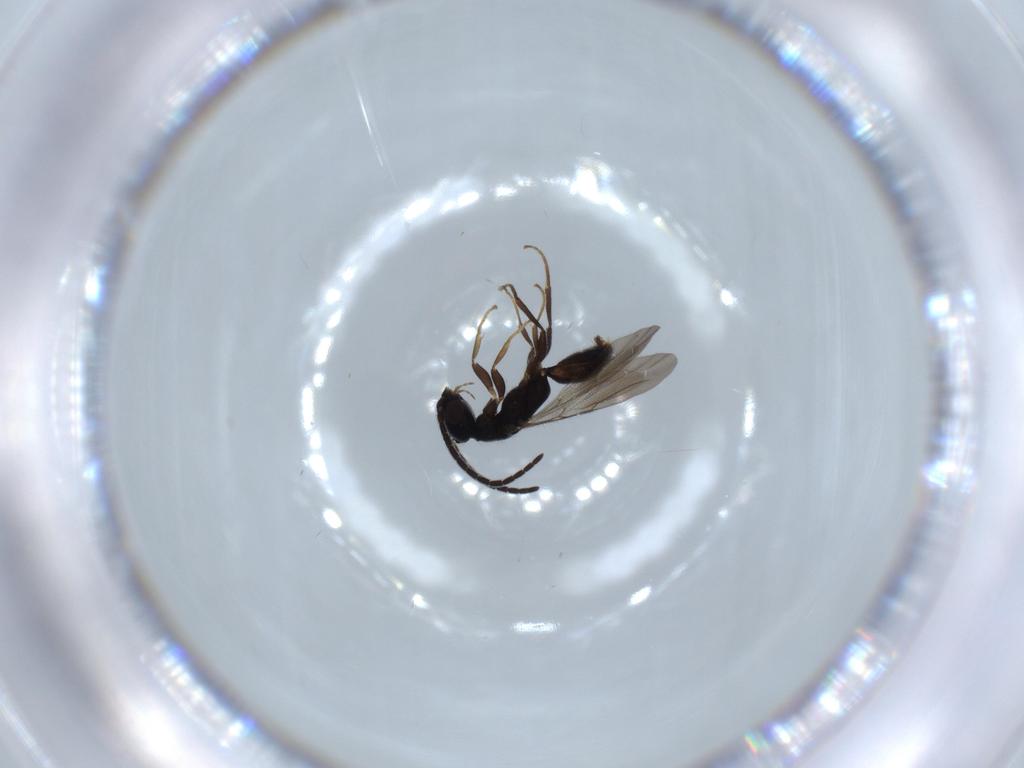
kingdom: Animalia
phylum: Arthropoda
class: Insecta
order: Hymenoptera
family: Bethylidae
